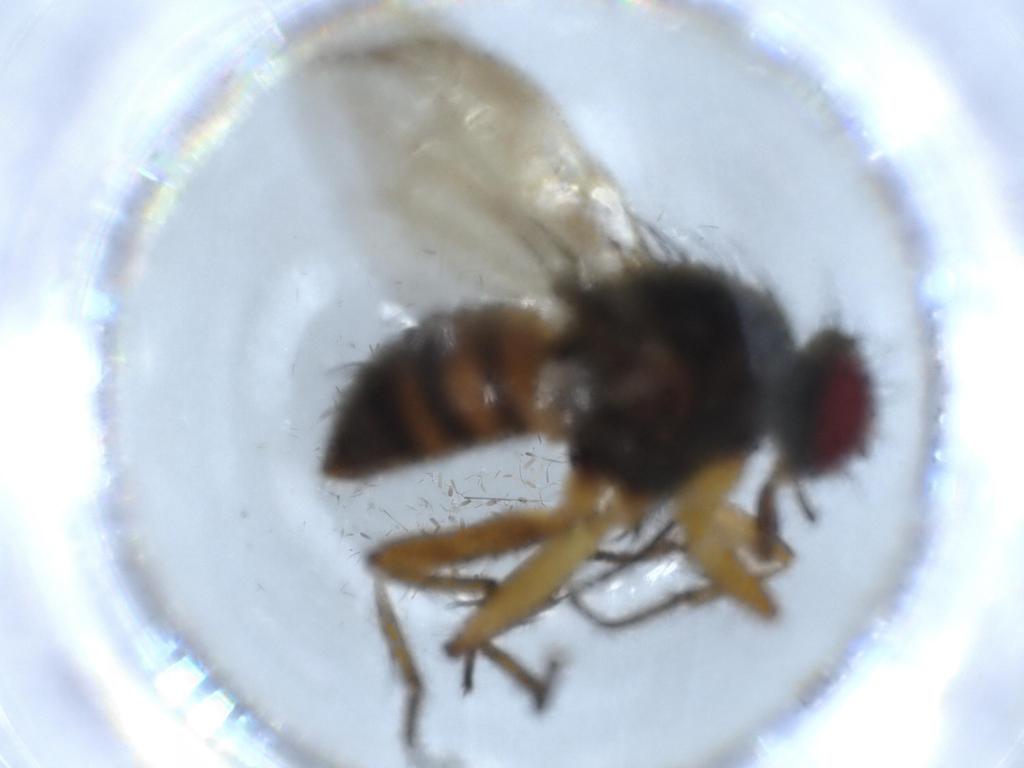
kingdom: Animalia
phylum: Arthropoda
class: Insecta
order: Diptera
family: Muscidae
